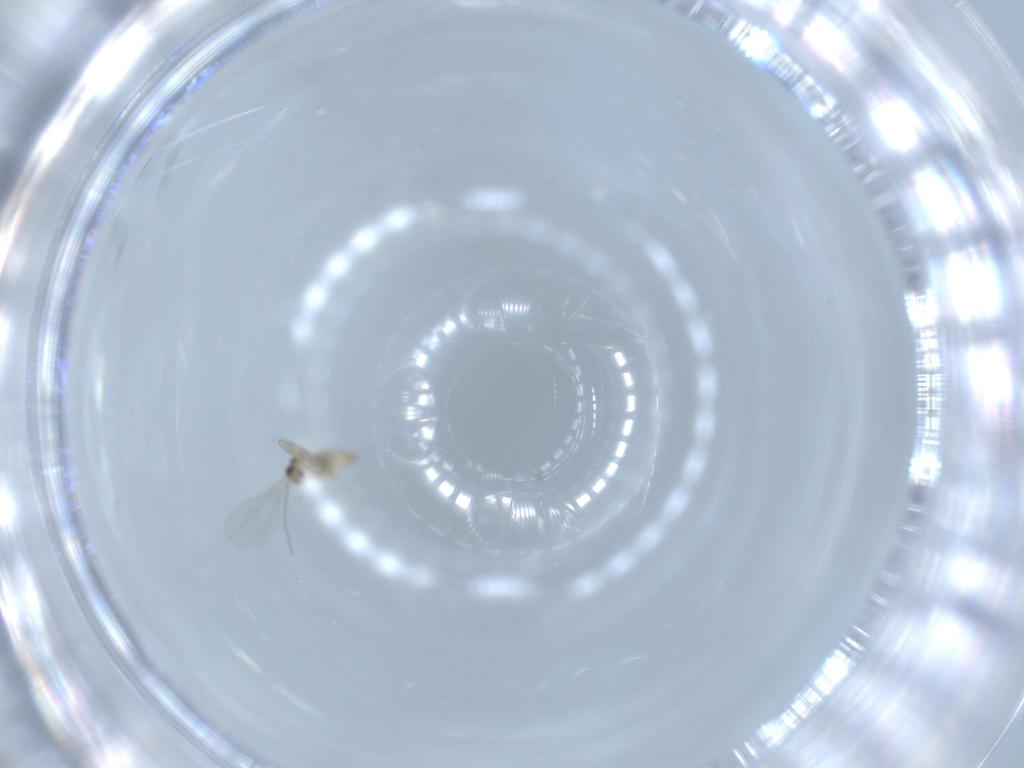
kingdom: Animalia
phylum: Arthropoda
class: Insecta
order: Diptera
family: Cecidomyiidae
